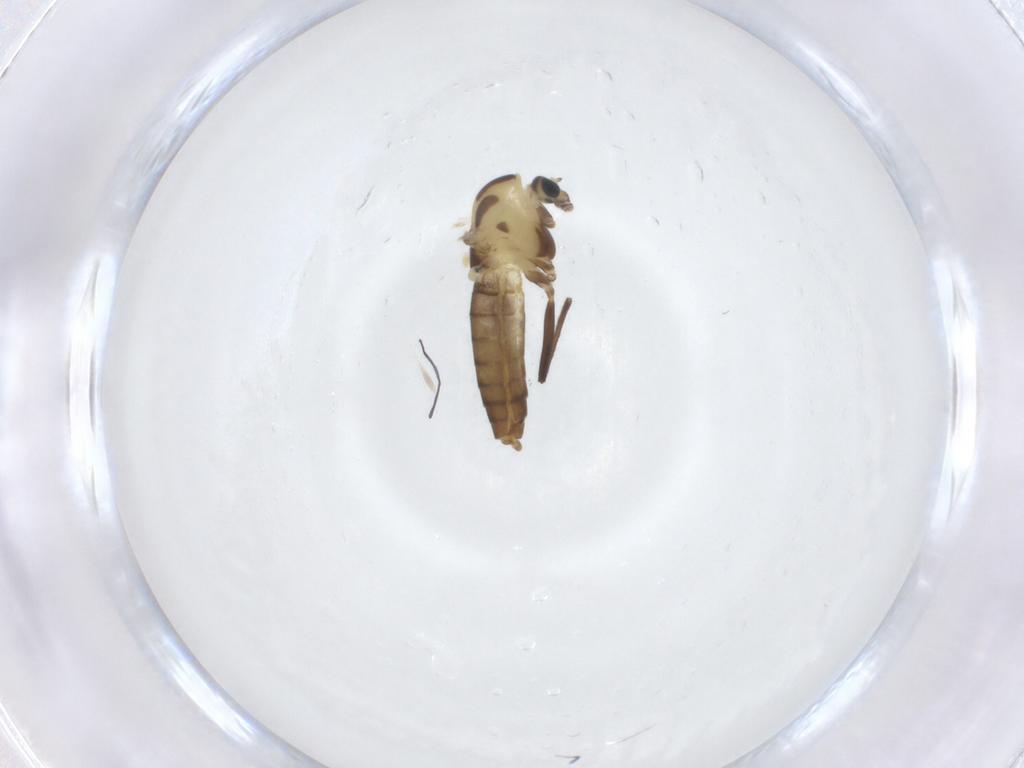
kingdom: Animalia
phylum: Arthropoda
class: Insecta
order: Diptera
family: Chironomidae
